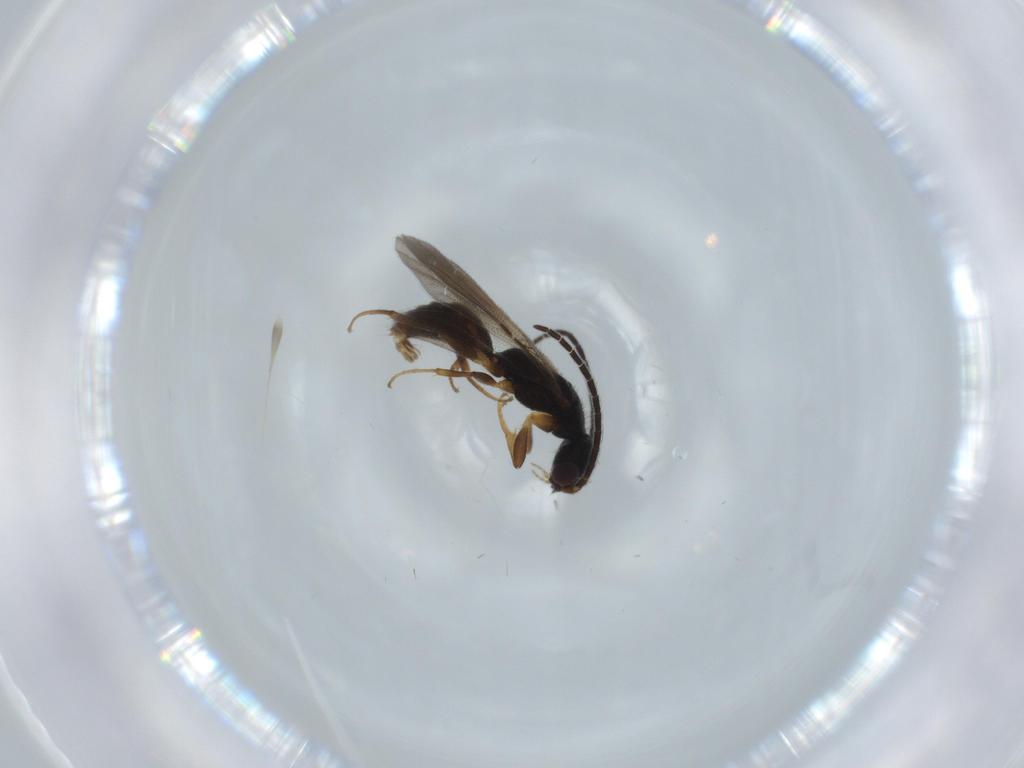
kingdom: Animalia
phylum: Arthropoda
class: Insecta
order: Hymenoptera
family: Bethylidae
